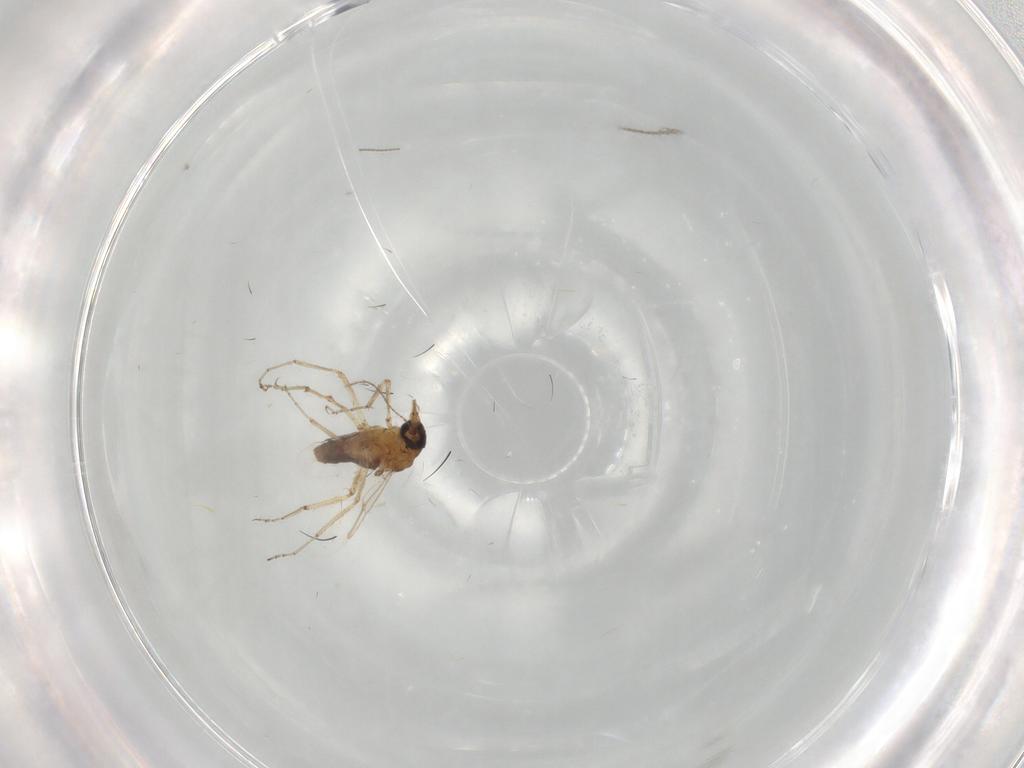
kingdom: Animalia
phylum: Arthropoda
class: Insecta
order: Diptera
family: Ceratopogonidae
